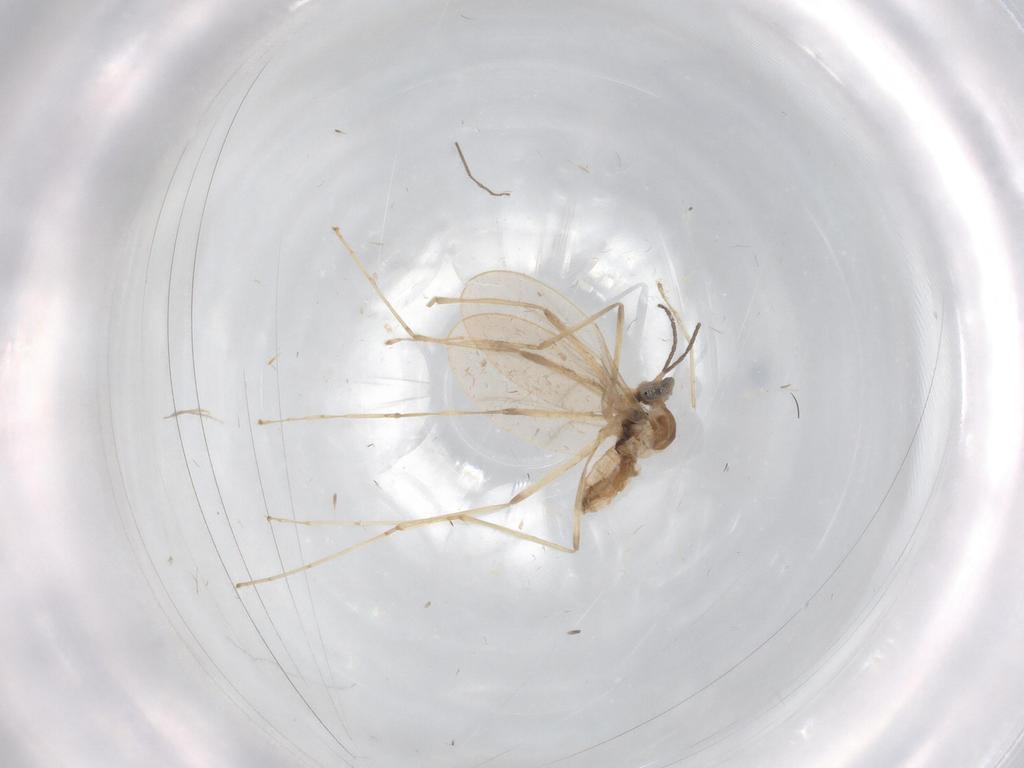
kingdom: Animalia
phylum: Arthropoda
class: Insecta
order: Diptera
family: Cecidomyiidae
